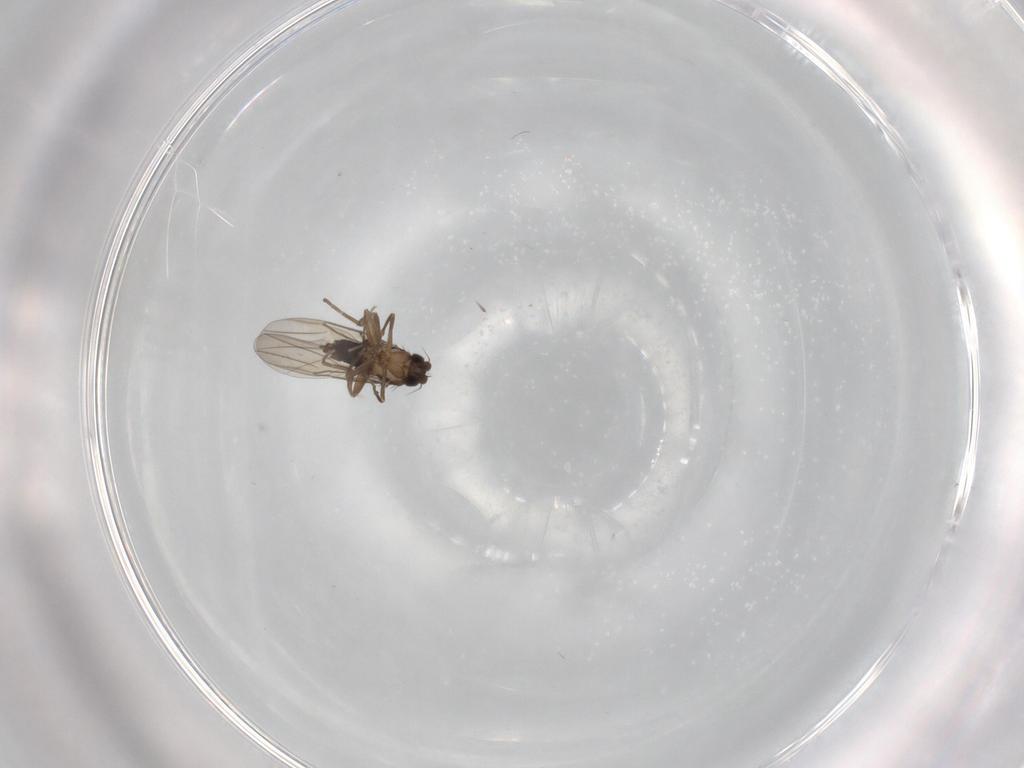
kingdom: Animalia
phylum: Arthropoda
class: Insecta
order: Diptera
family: Phoridae
